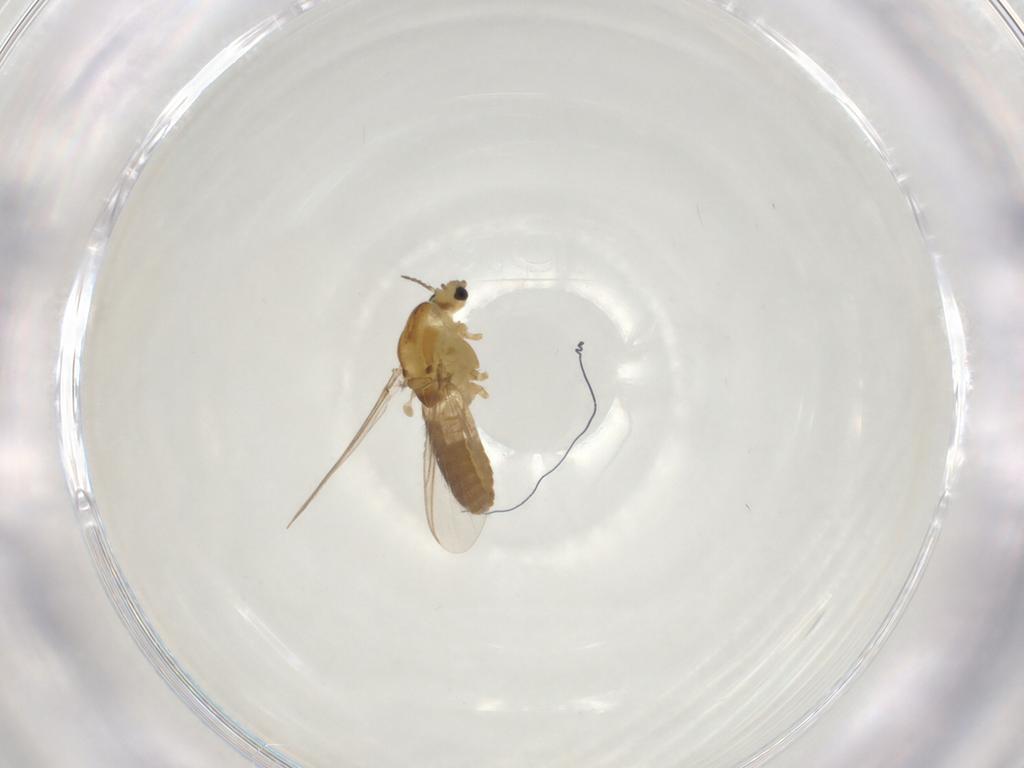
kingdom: Animalia
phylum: Arthropoda
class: Insecta
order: Diptera
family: Chironomidae
